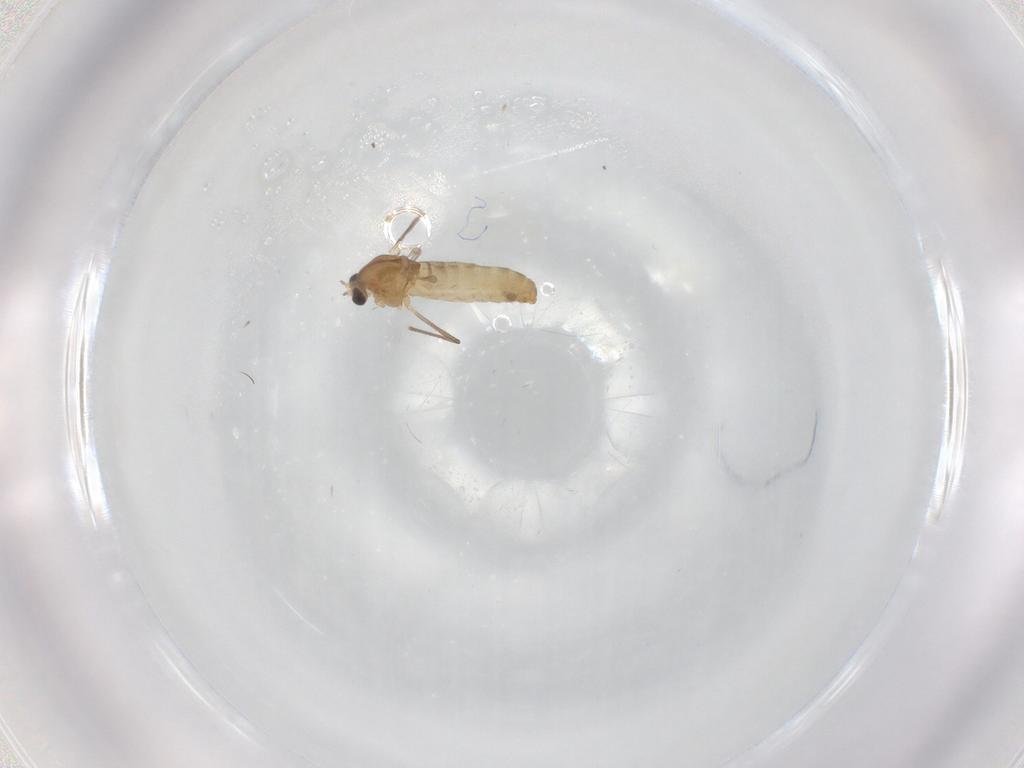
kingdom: Animalia
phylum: Arthropoda
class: Insecta
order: Diptera
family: Chironomidae
